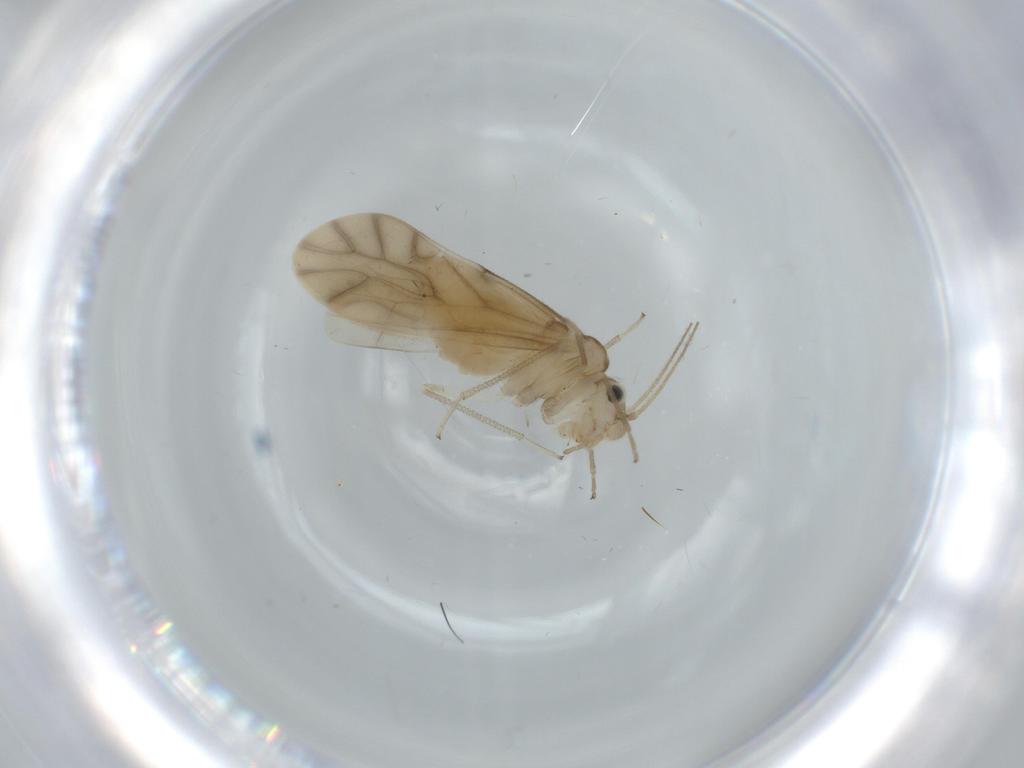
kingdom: Animalia
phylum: Arthropoda
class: Insecta
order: Psocodea
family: Caeciliusidae
